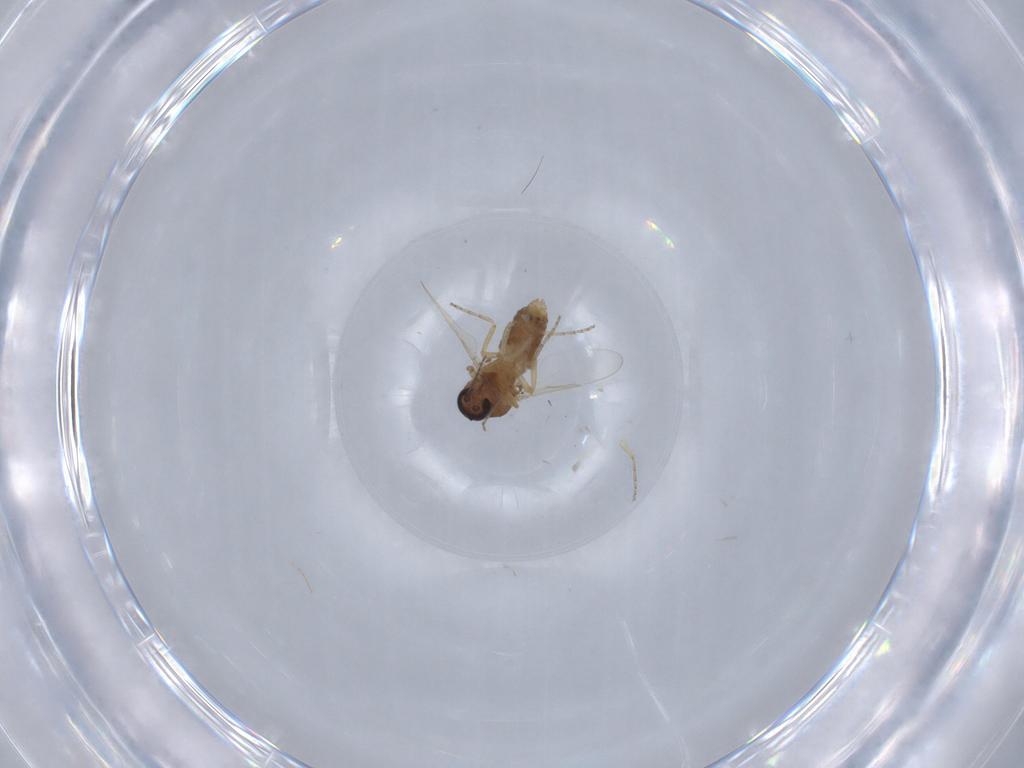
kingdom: Animalia
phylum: Arthropoda
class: Insecta
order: Diptera
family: Ceratopogonidae
